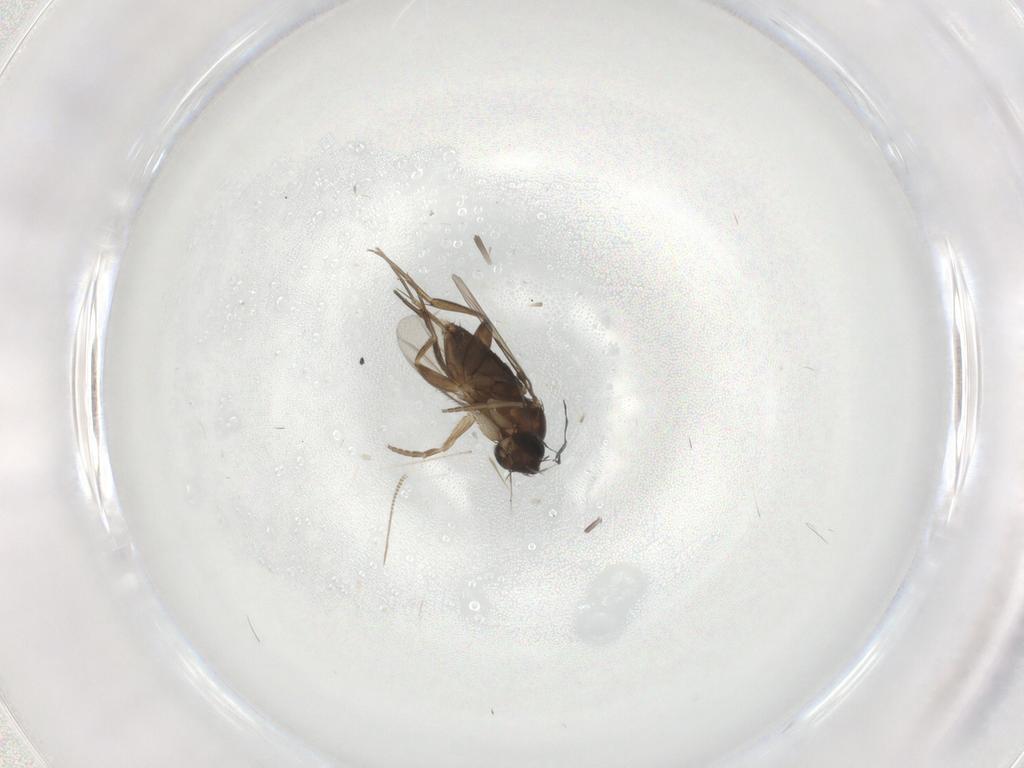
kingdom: Animalia
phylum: Arthropoda
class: Insecta
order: Diptera
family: Phoridae
